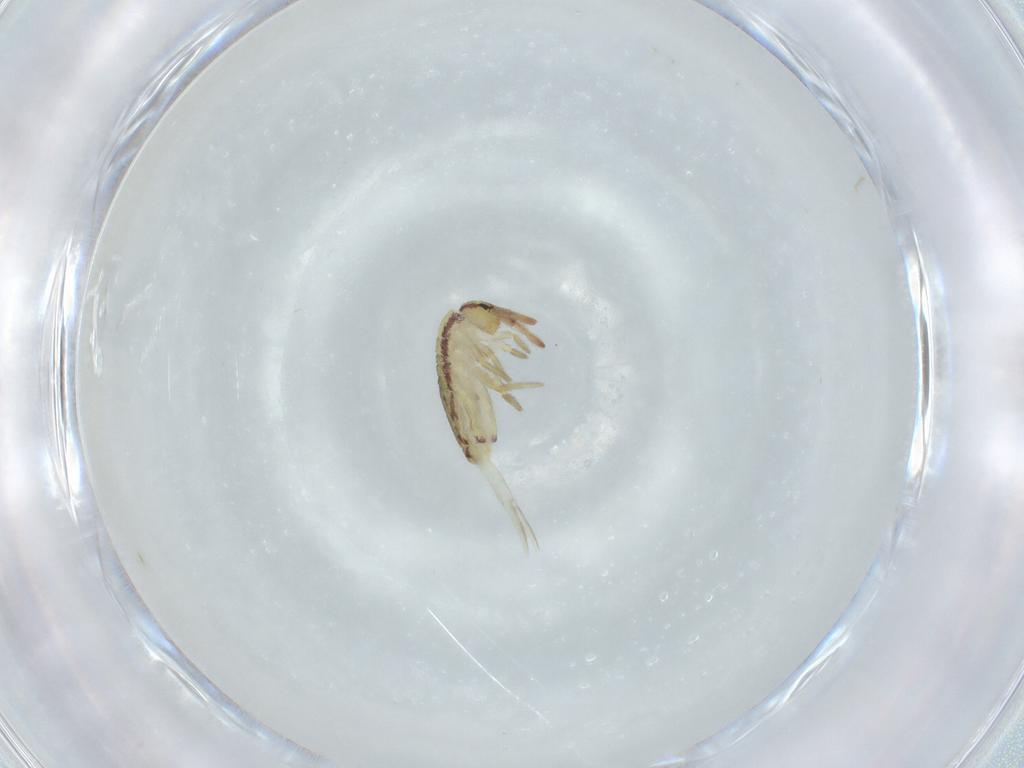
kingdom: Animalia
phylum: Arthropoda
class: Collembola
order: Entomobryomorpha
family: Entomobryidae
